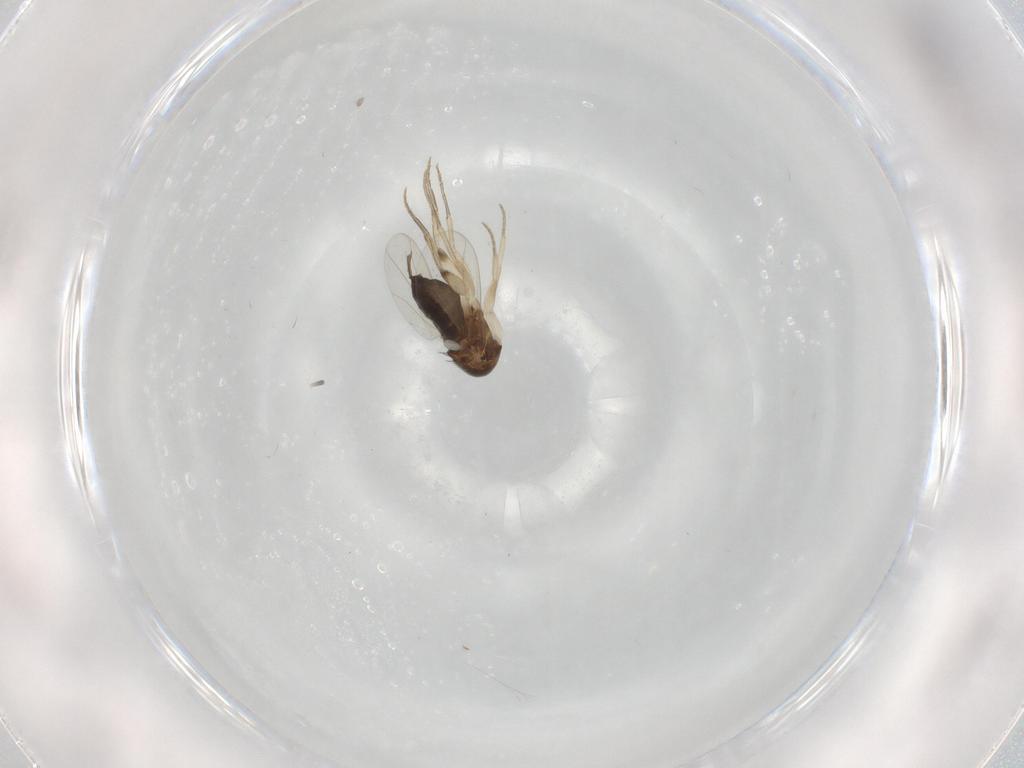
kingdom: Animalia
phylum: Arthropoda
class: Insecta
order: Diptera
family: Phoridae
